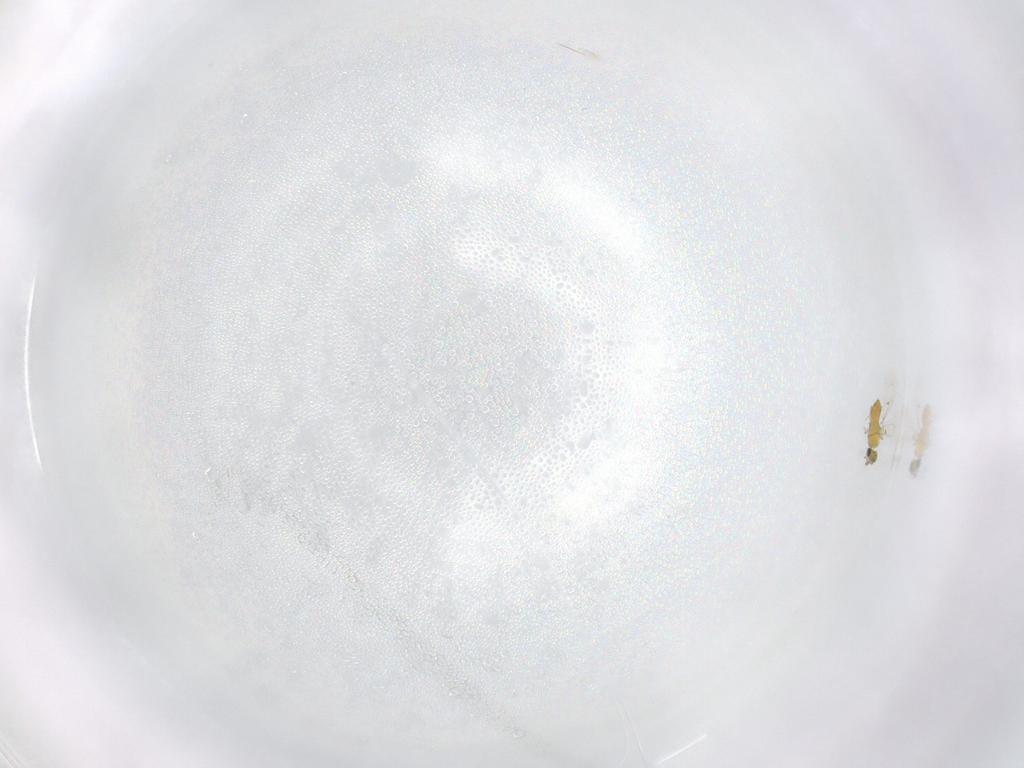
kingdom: Animalia
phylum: Arthropoda
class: Insecta
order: Hymenoptera
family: Trichogrammatidae
